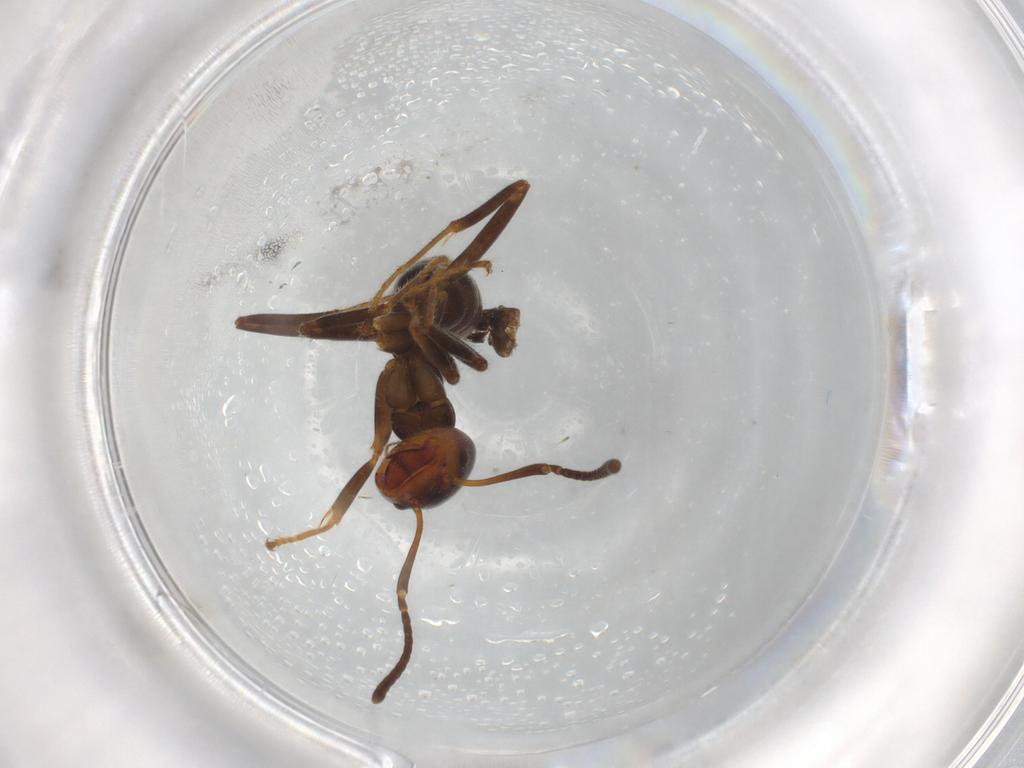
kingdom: Animalia
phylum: Arthropoda
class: Insecta
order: Hymenoptera
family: Formicidae
